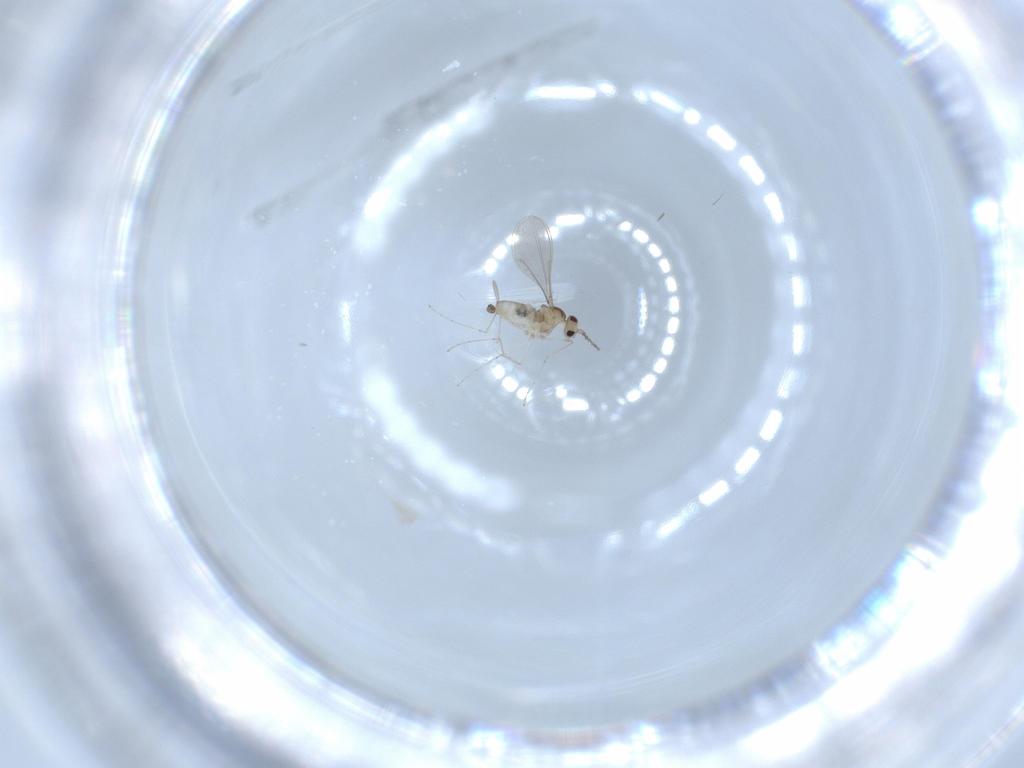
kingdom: Animalia
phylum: Arthropoda
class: Insecta
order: Diptera
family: Cecidomyiidae
